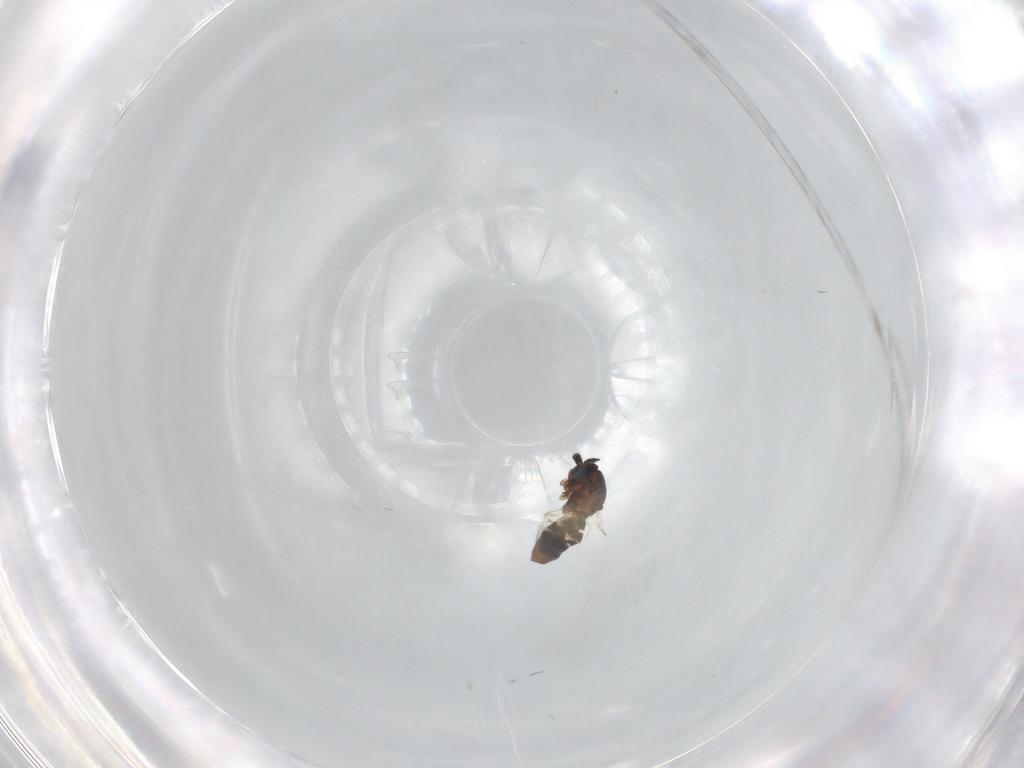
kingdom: Animalia
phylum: Arthropoda
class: Insecta
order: Diptera
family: Scatopsidae
